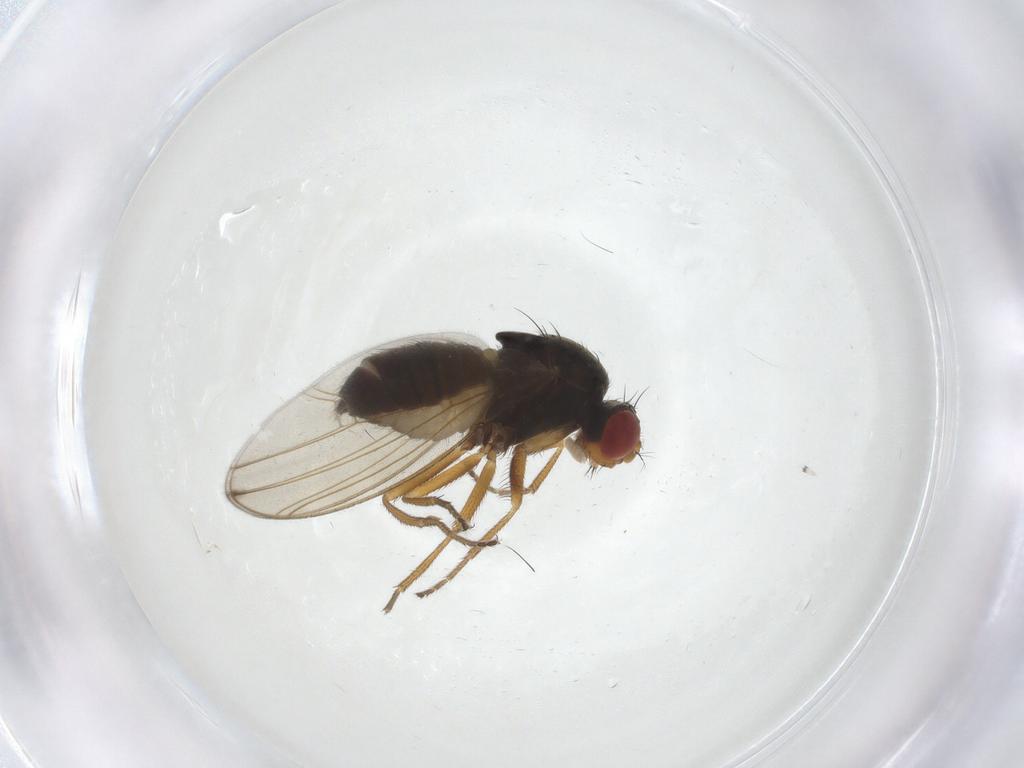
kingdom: Animalia
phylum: Arthropoda
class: Insecta
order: Diptera
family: Drosophilidae
